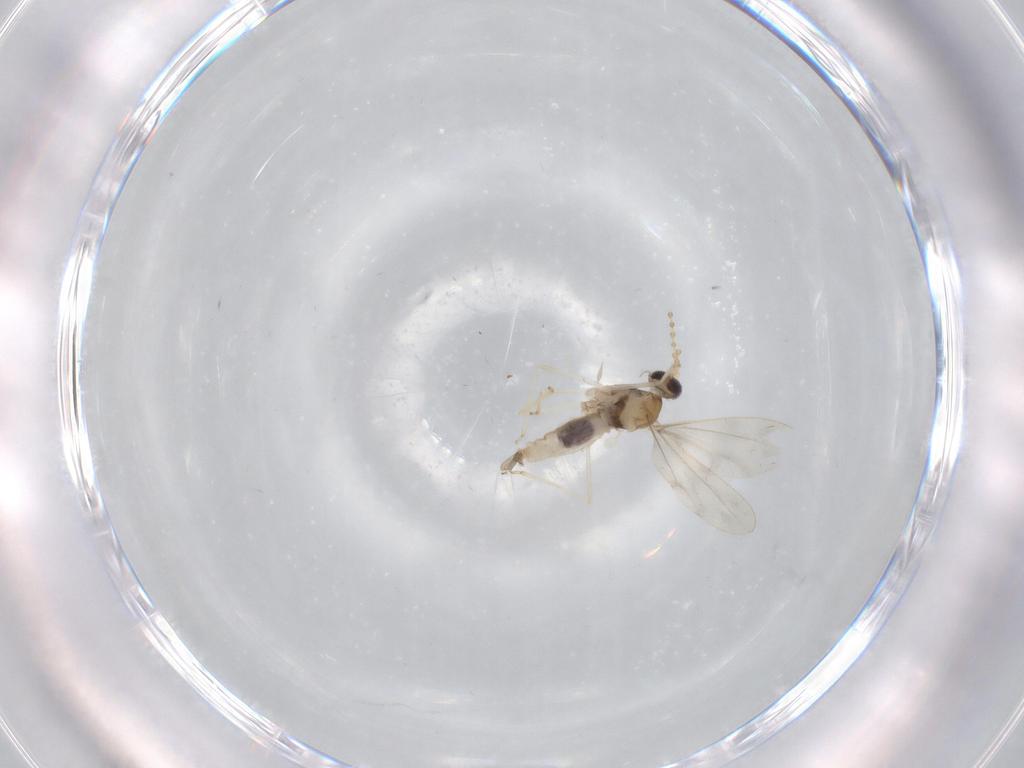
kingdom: Animalia
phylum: Arthropoda
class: Insecta
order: Diptera
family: Cecidomyiidae
